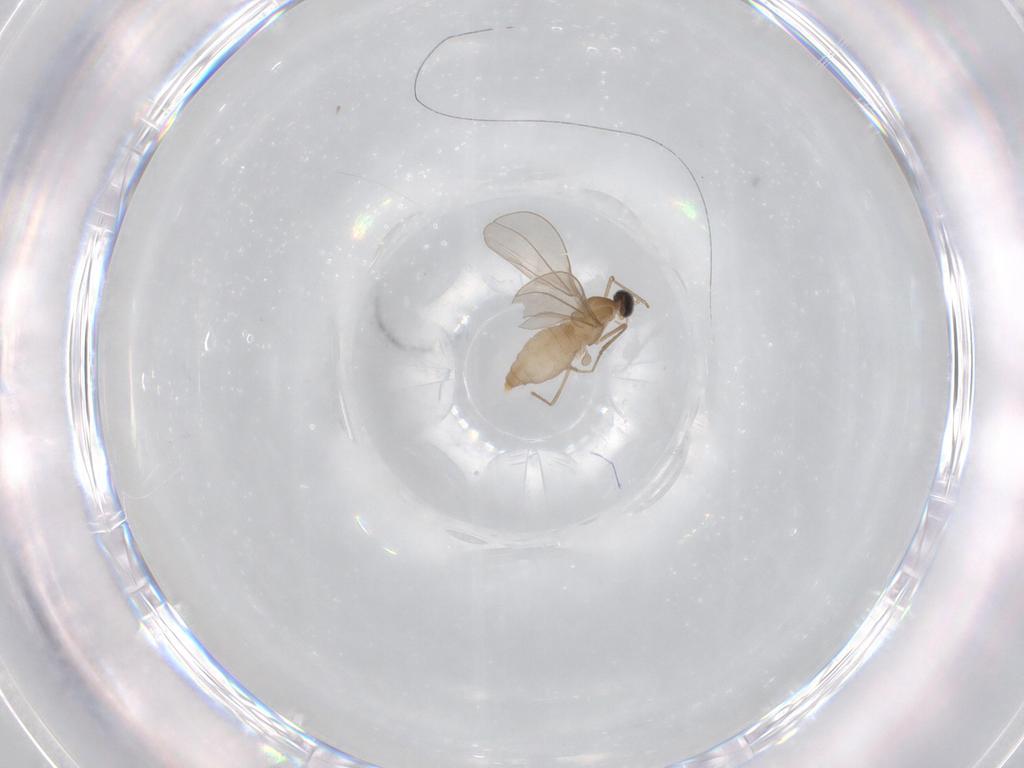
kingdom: Animalia
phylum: Arthropoda
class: Insecta
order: Diptera
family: Cecidomyiidae
